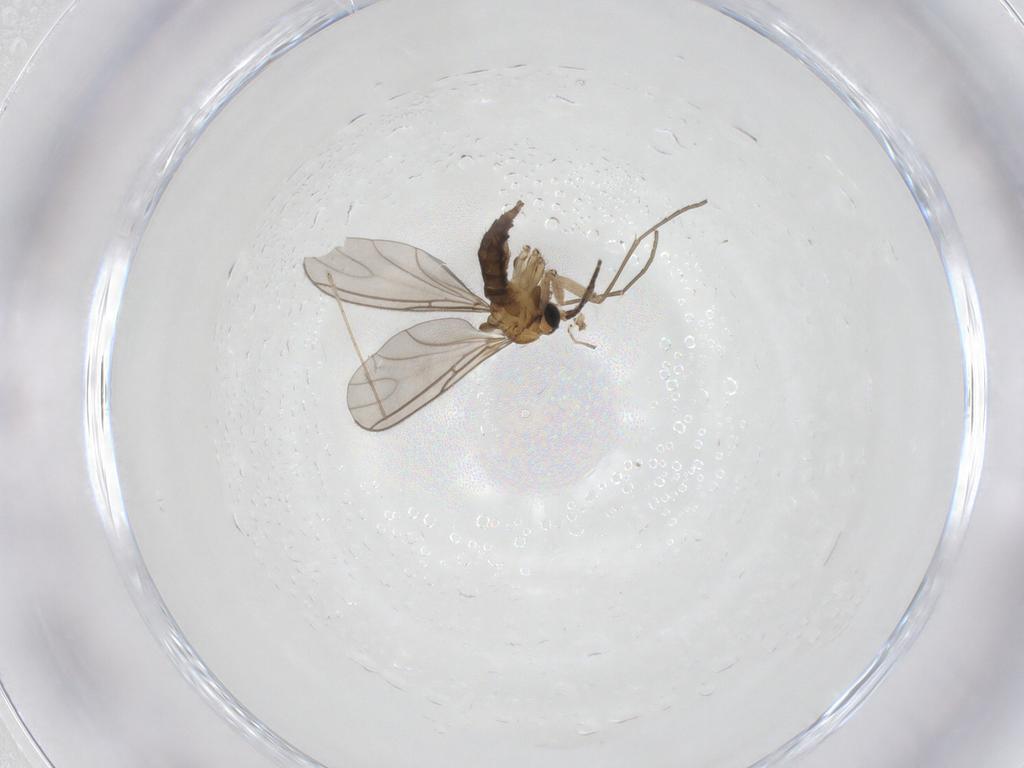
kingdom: Animalia
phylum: Arthropoda
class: Insecta
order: Diptera
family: Sciaridae
